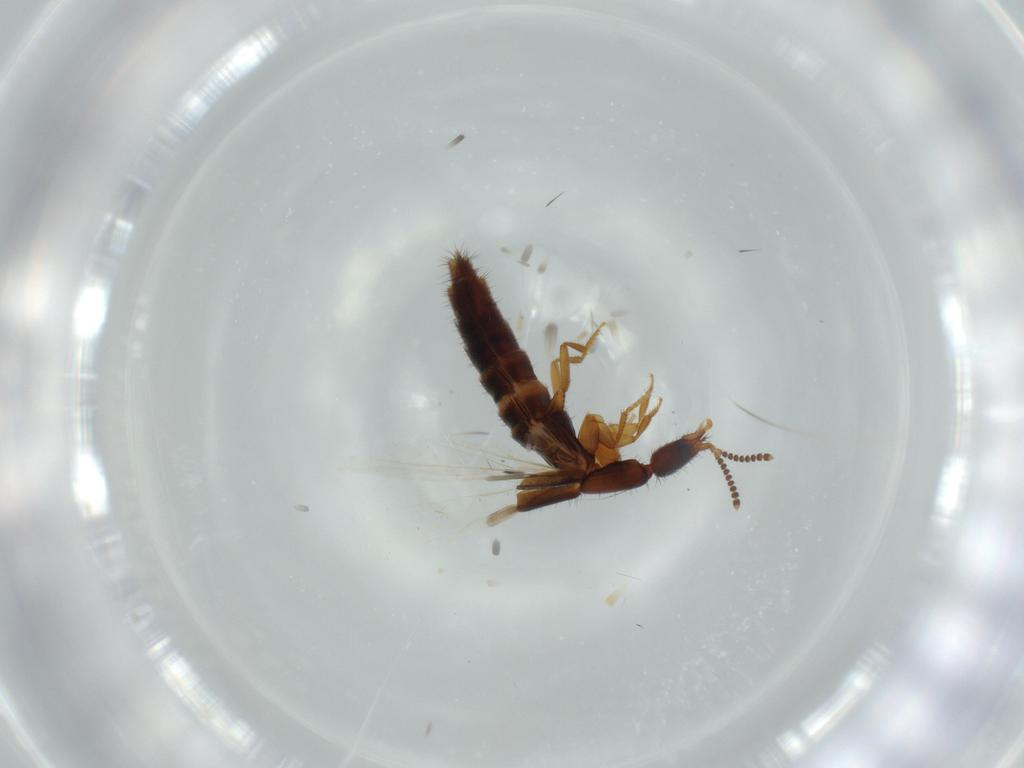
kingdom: Animalia
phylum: Arthropoda
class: Insecta
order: Coleoptera
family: Staphylinidae
